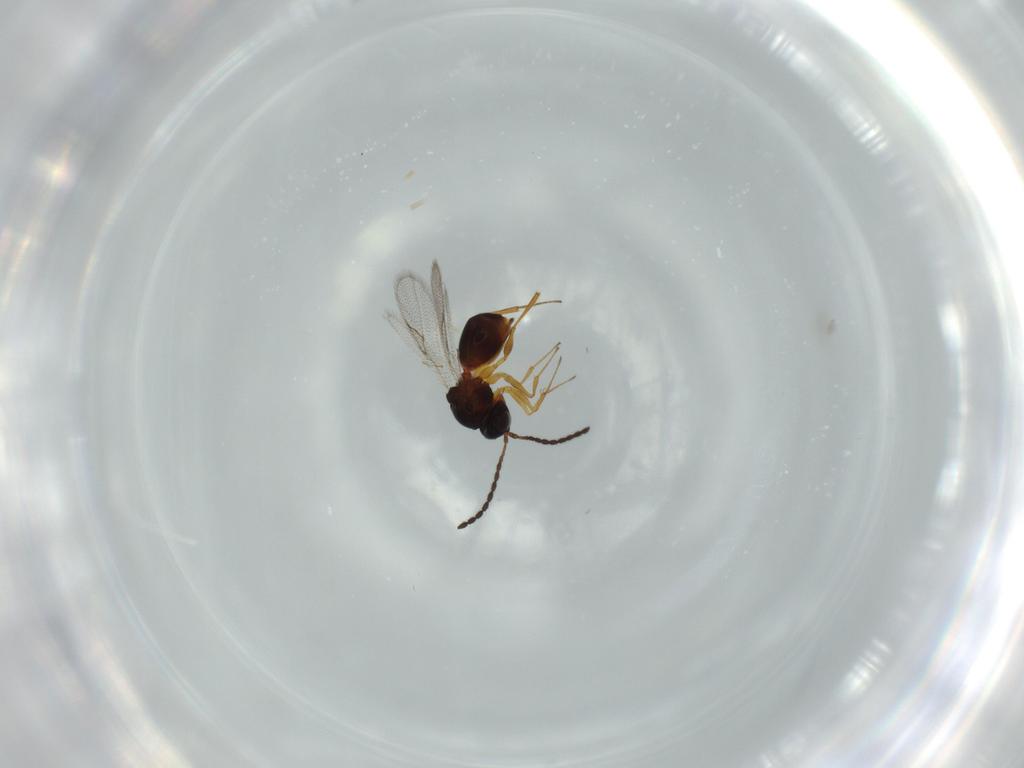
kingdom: Animalia
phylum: Arthropoda
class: Insecta
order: Hymenoptera
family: Figitidae
